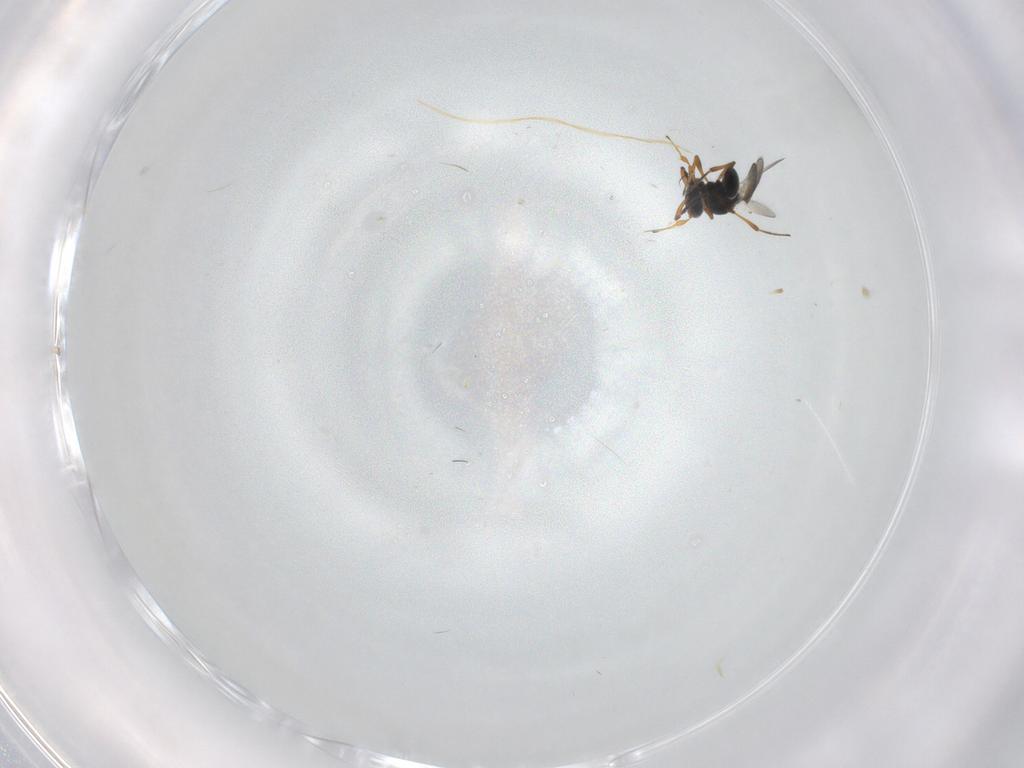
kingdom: Animalia
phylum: Arthropoda
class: Insecta
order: Hymenoptera
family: Platygastridae
